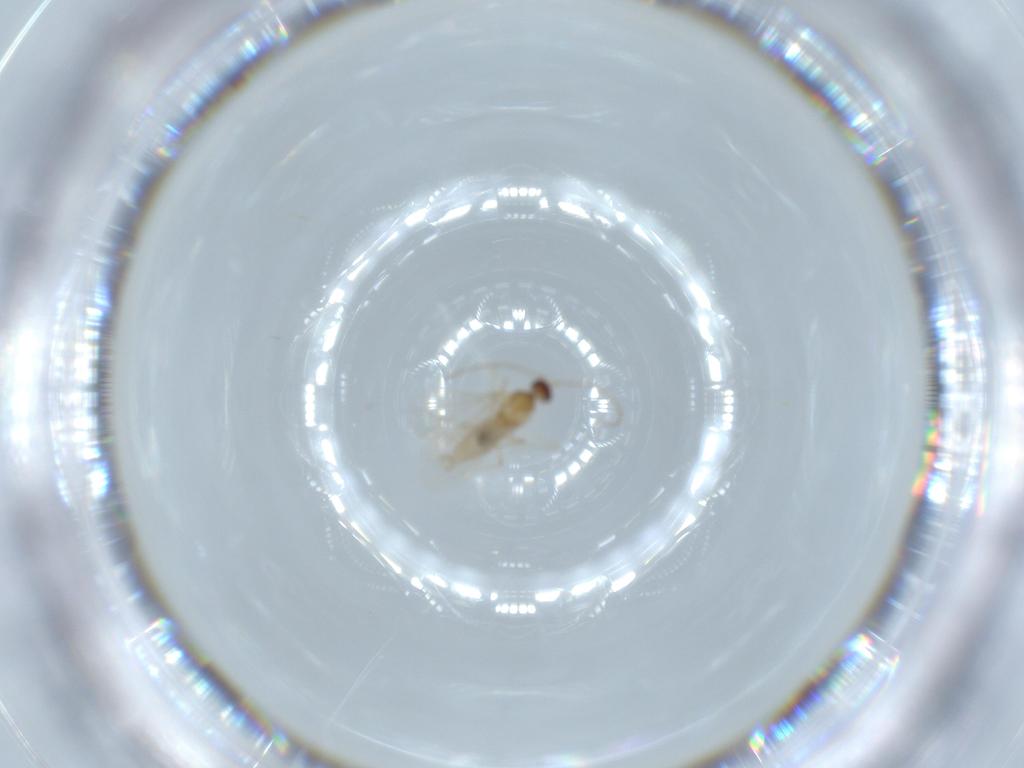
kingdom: Animalia
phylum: Arthropoda
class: Insecta
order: Diptera
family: Cecidomyiidae
